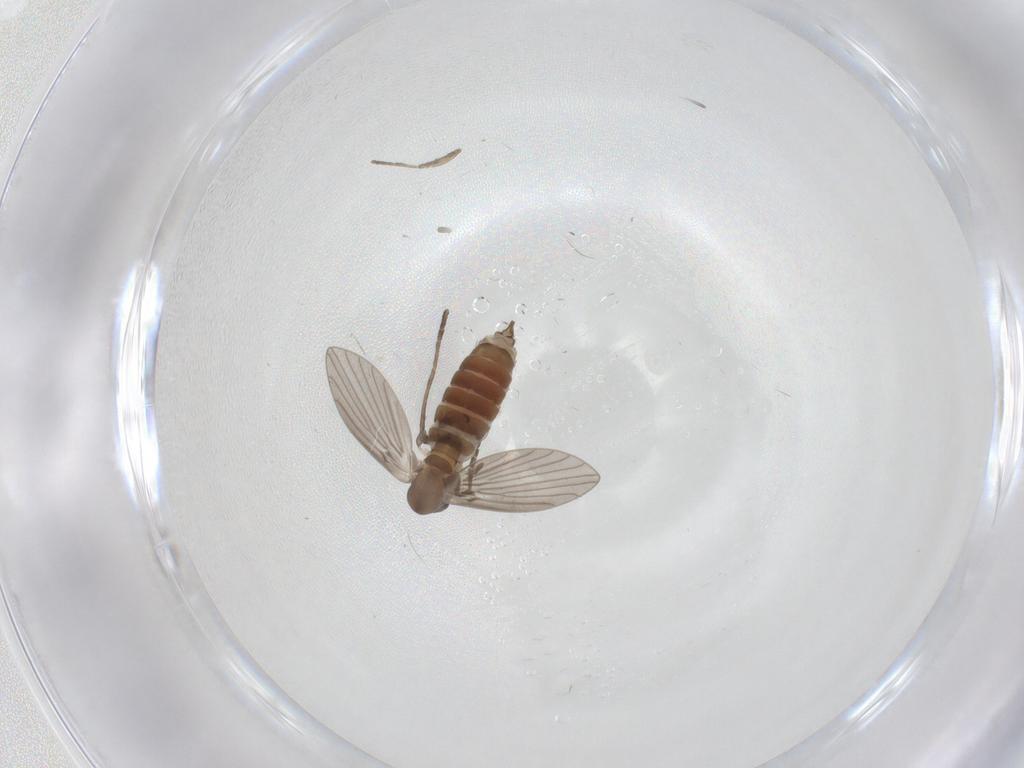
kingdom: Animalia
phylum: Arthropoda
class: Insecta
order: Diptera
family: Psychodidae
